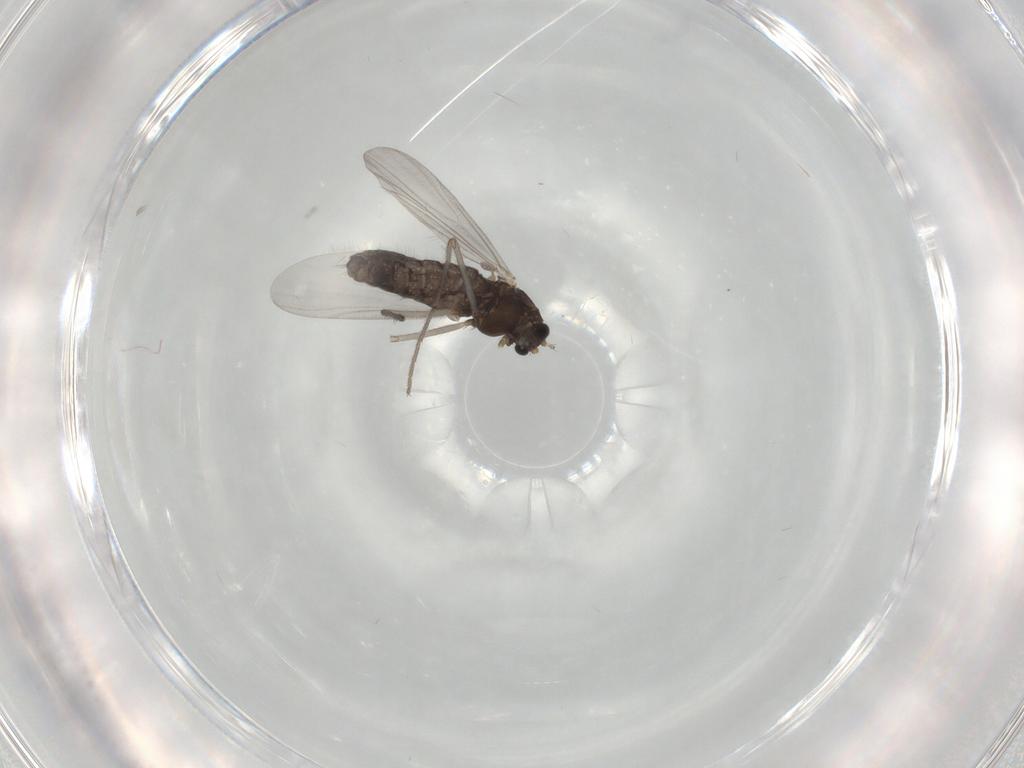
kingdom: Animalia
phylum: Arthropoda
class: Insecta
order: Diptera
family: Chironomidae
